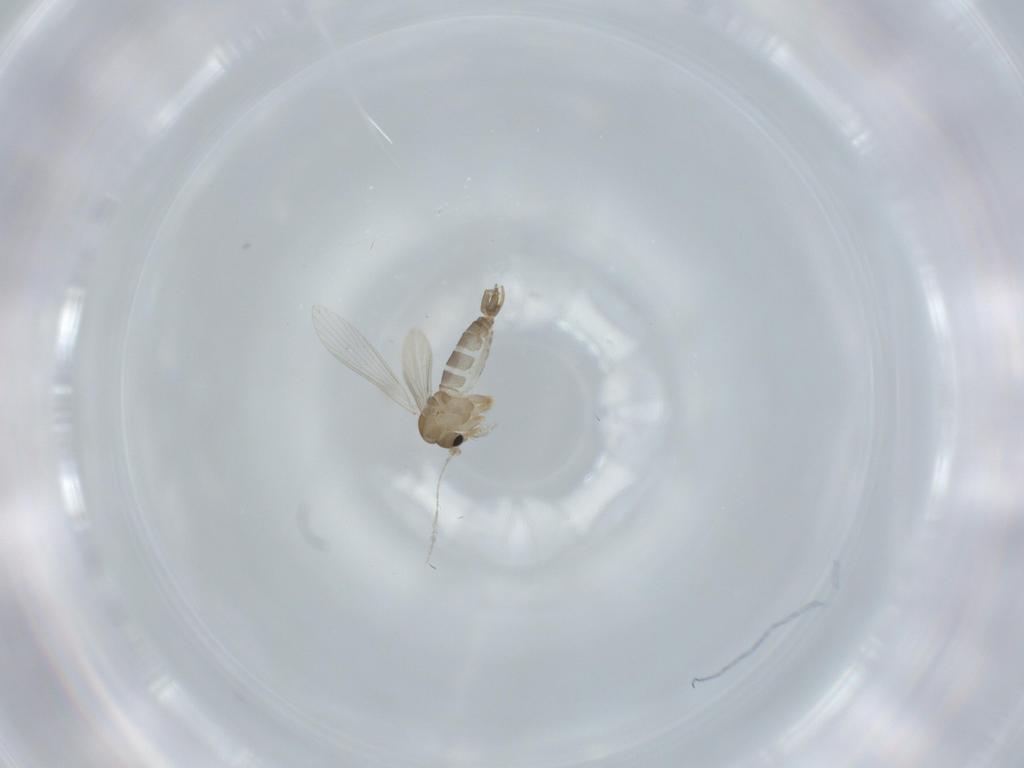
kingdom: Animalia
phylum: Arthropoda
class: Insecta
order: Diptera
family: Psychodidae
